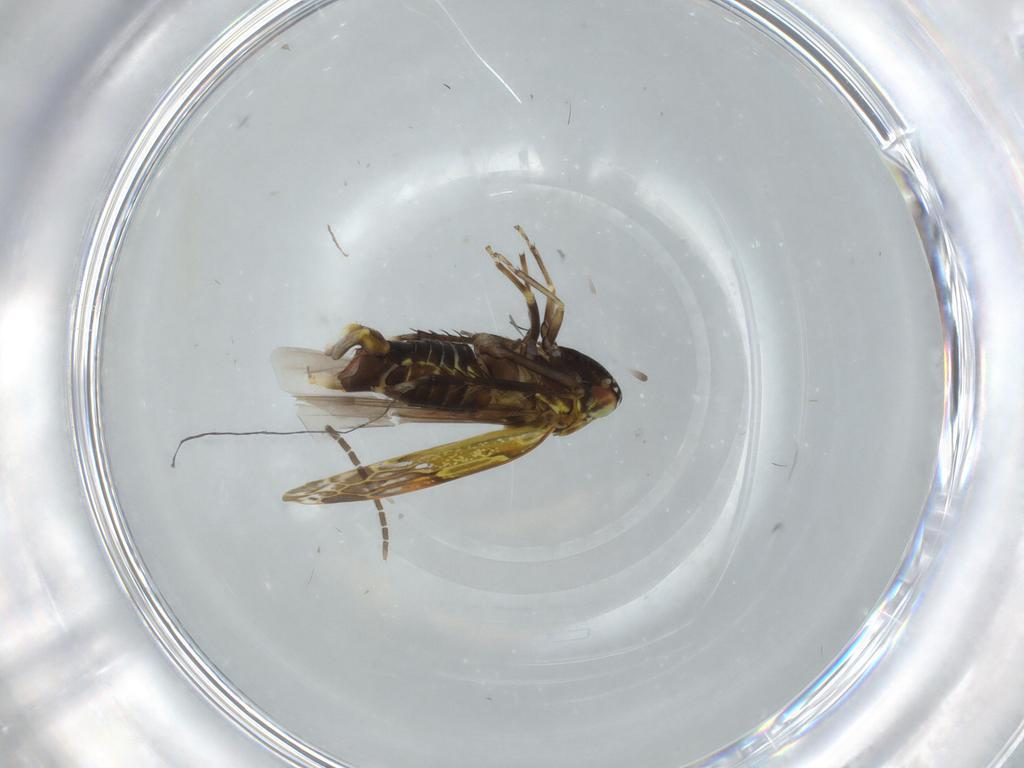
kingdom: Animalia
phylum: Arthropoda
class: Insecta
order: Hemiptera
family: Cicadellidae
